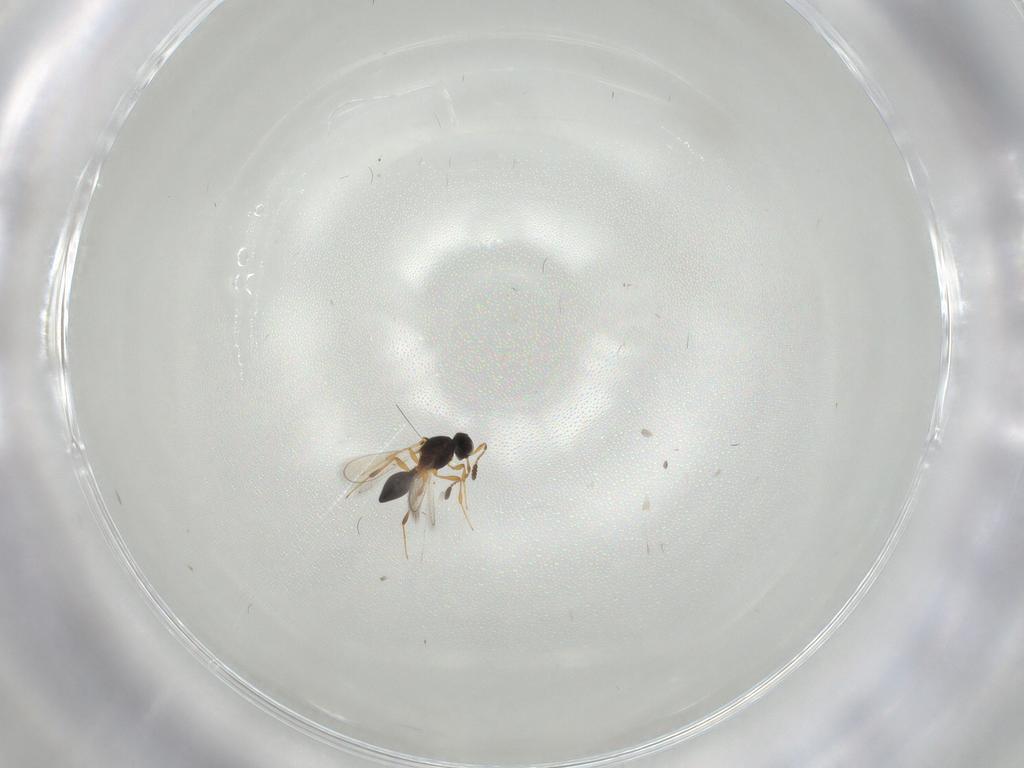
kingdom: Animalia
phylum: Arthropoda
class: Insecta
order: Hymenoptera
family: Platygastridae
